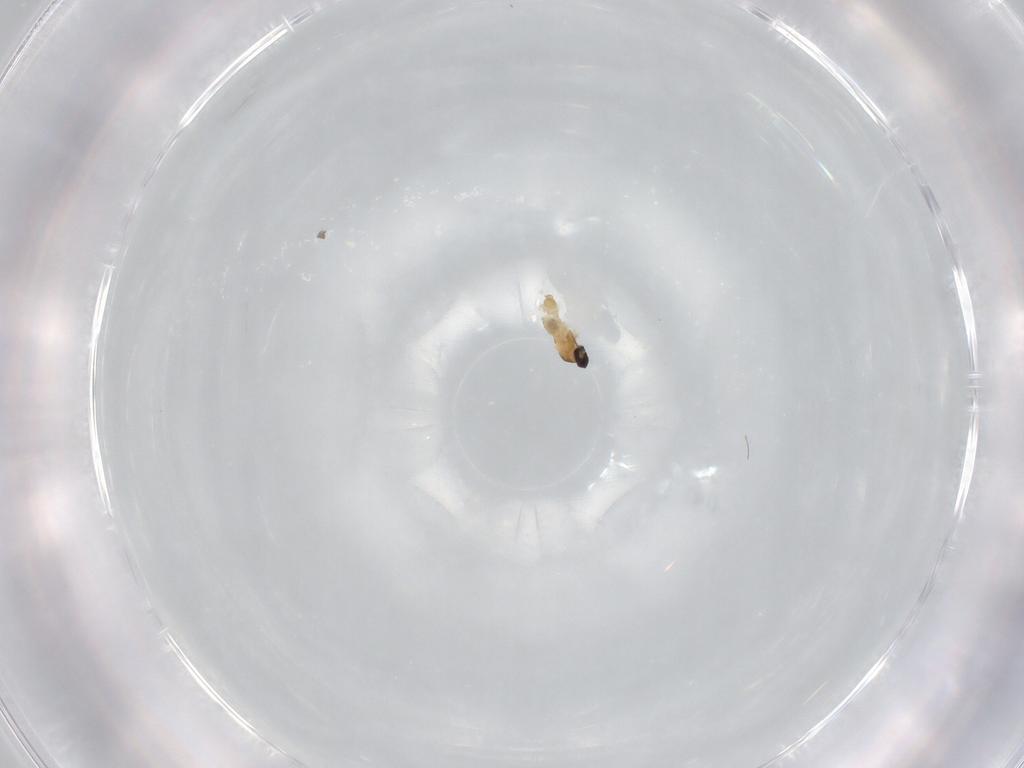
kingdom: Animalia
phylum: Arthropoda
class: Insecta
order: Diptera
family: Cecidomyiidae
